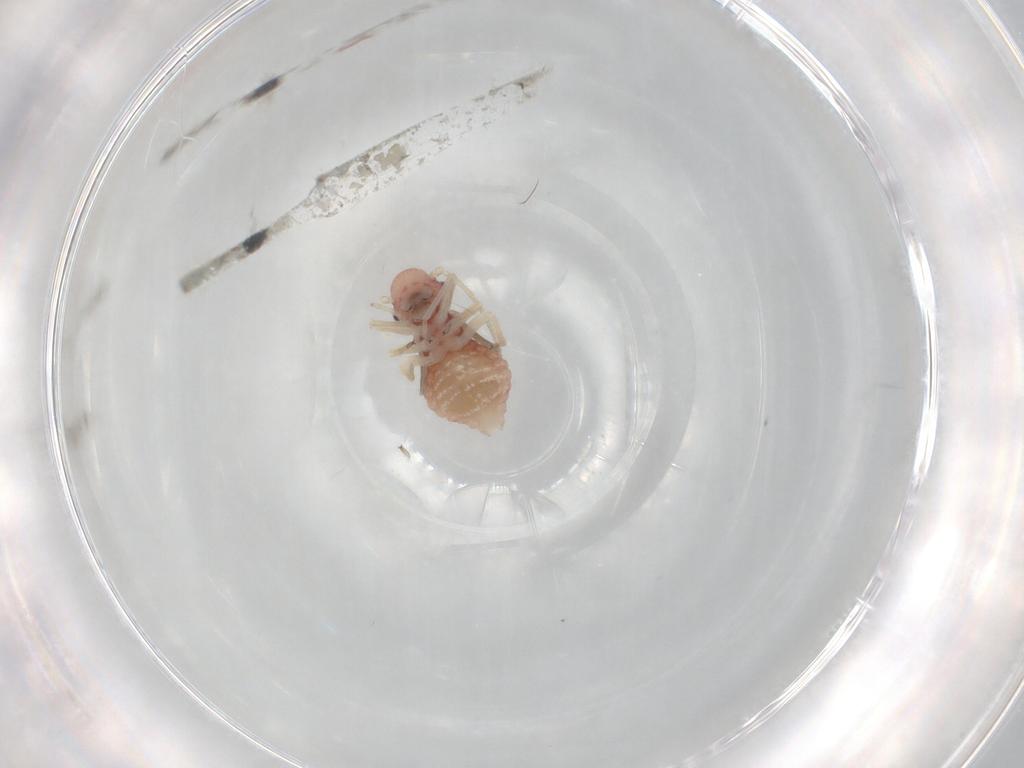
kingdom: Animalia
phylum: Arthropoda
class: Insecta
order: Psocodea
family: Caeciliusidae
